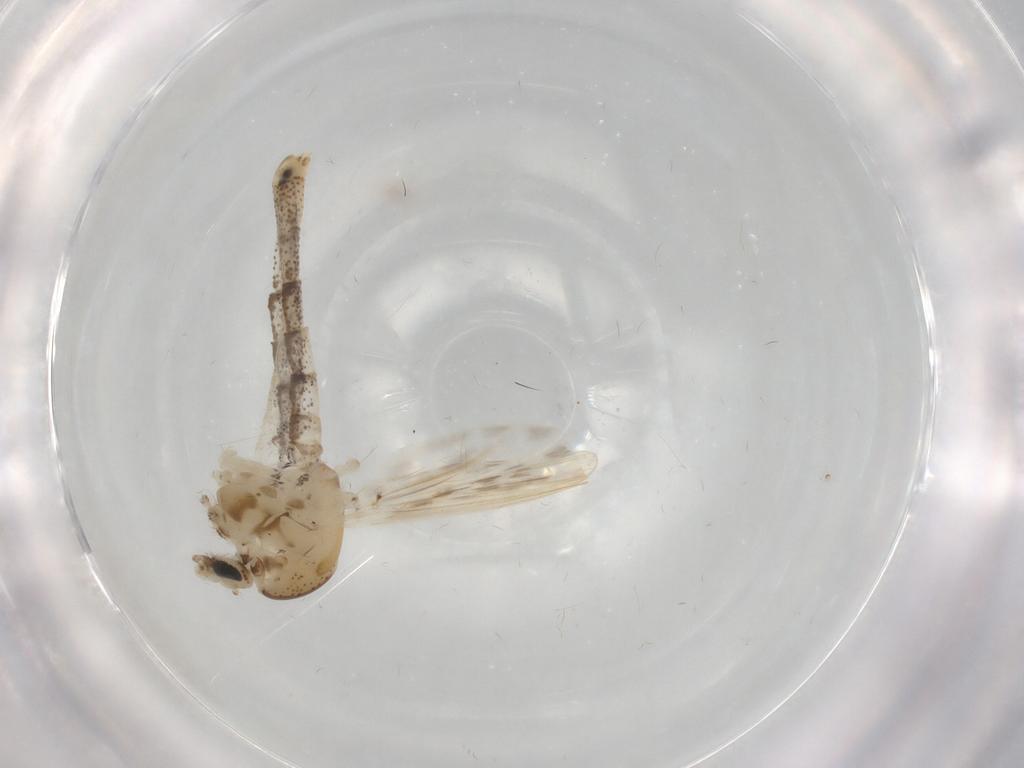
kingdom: Animalia
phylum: Arthropoda
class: Insecta
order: Diptera
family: Chaoboridae
